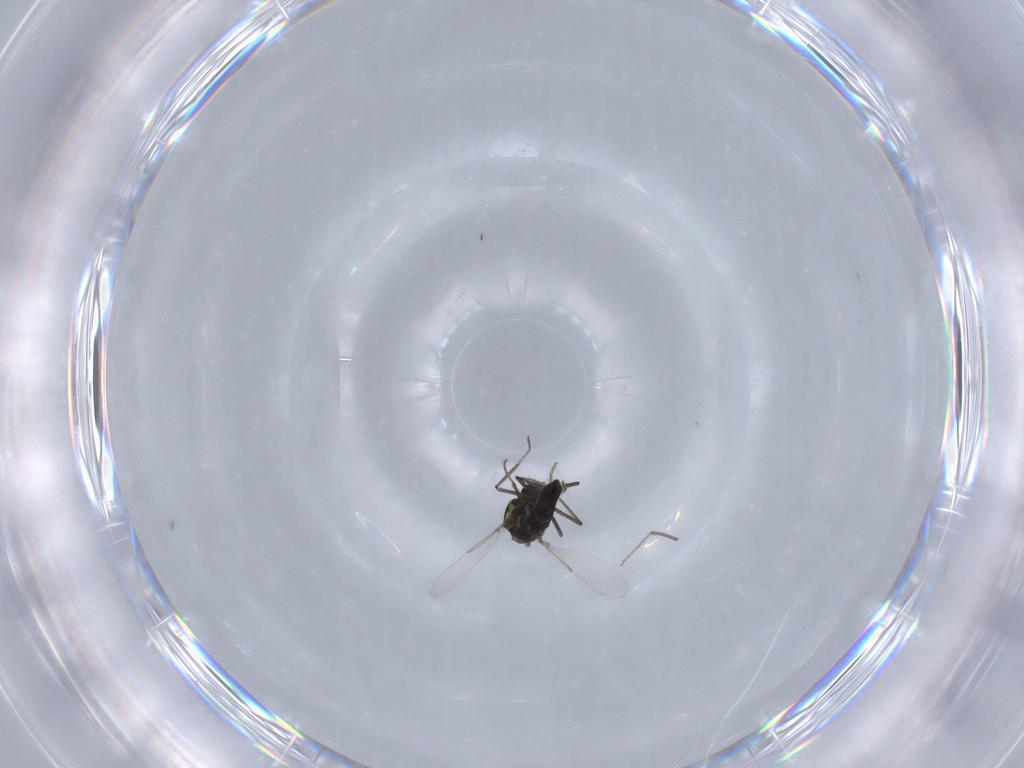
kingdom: Animalia
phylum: Arthropoda
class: Insecta
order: Diptera
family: Ceratopogonidae
